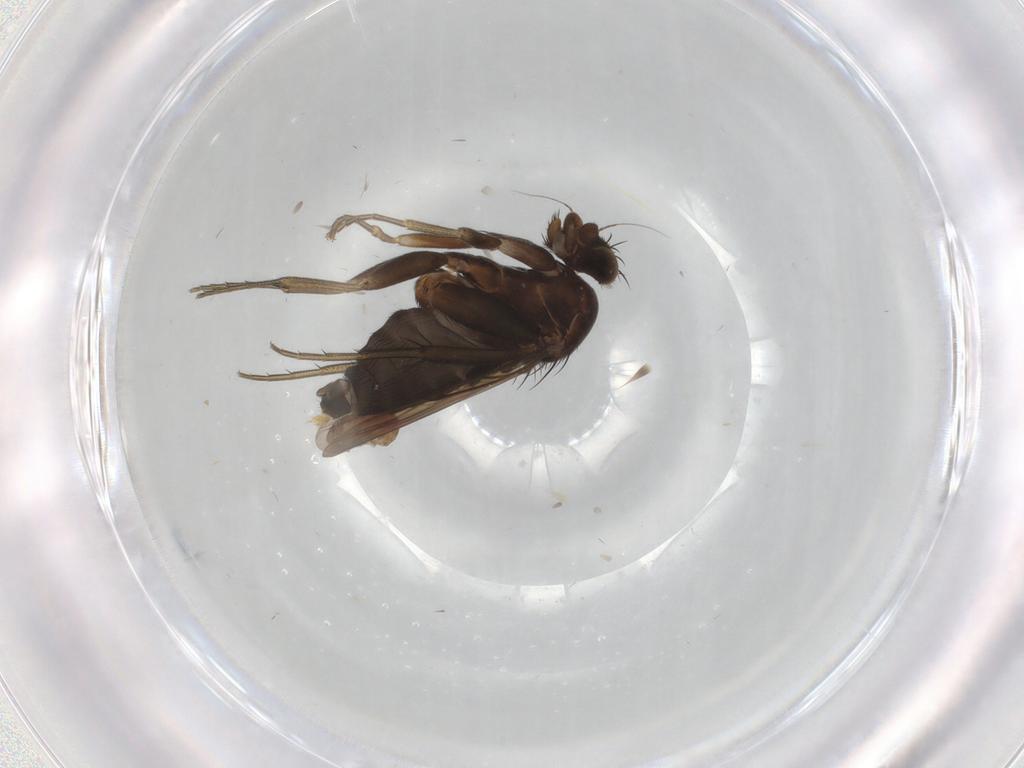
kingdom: Animalia
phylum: Arthropoda
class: Insecta
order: Diptera
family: Phoridae
